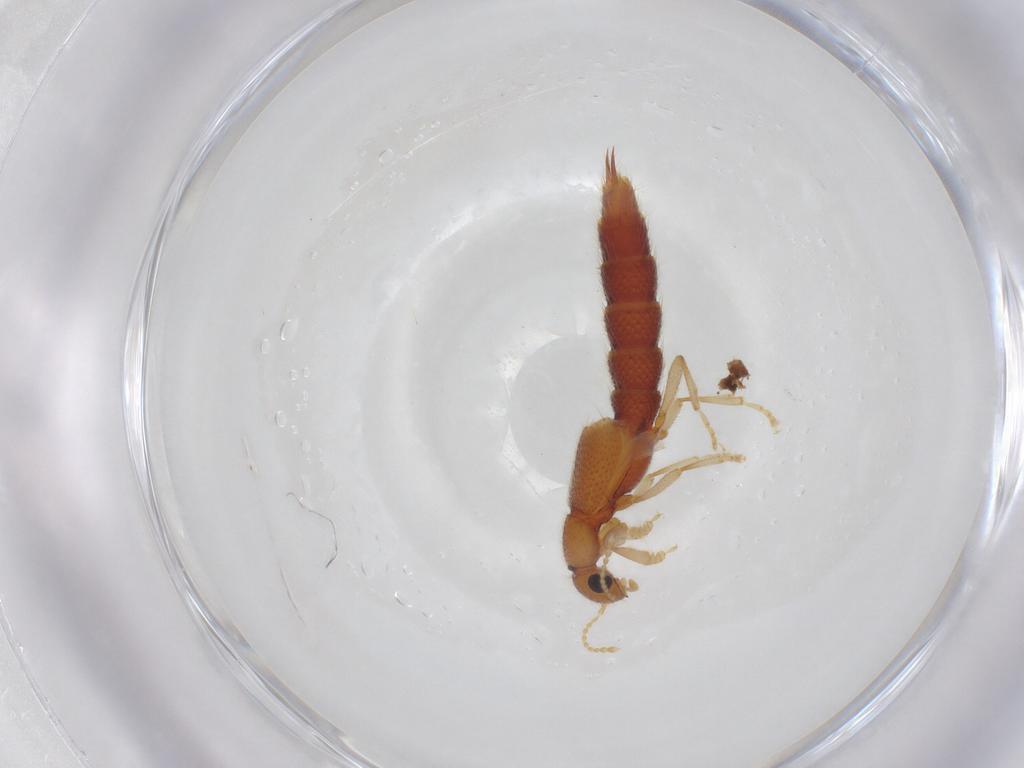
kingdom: Animalia
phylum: Arthropoda
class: Insecta
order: Coleoptera
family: Staphylinidae
